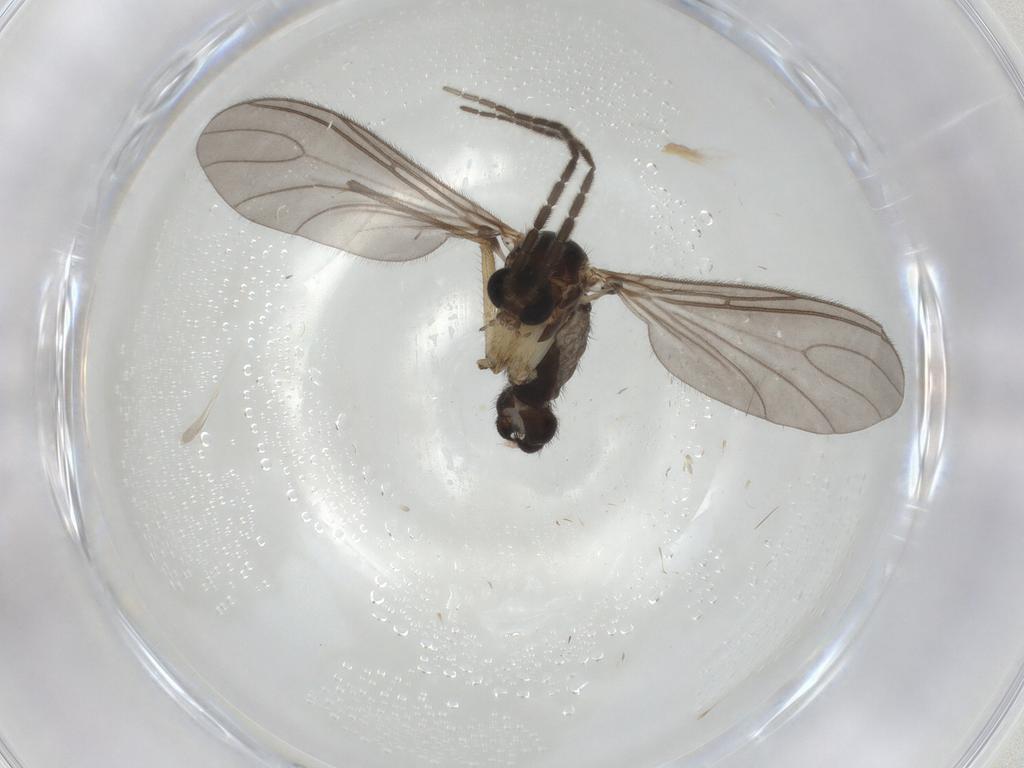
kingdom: Animalia
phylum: Arthropoda
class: Insecta
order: Diptera
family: Sciaridae
